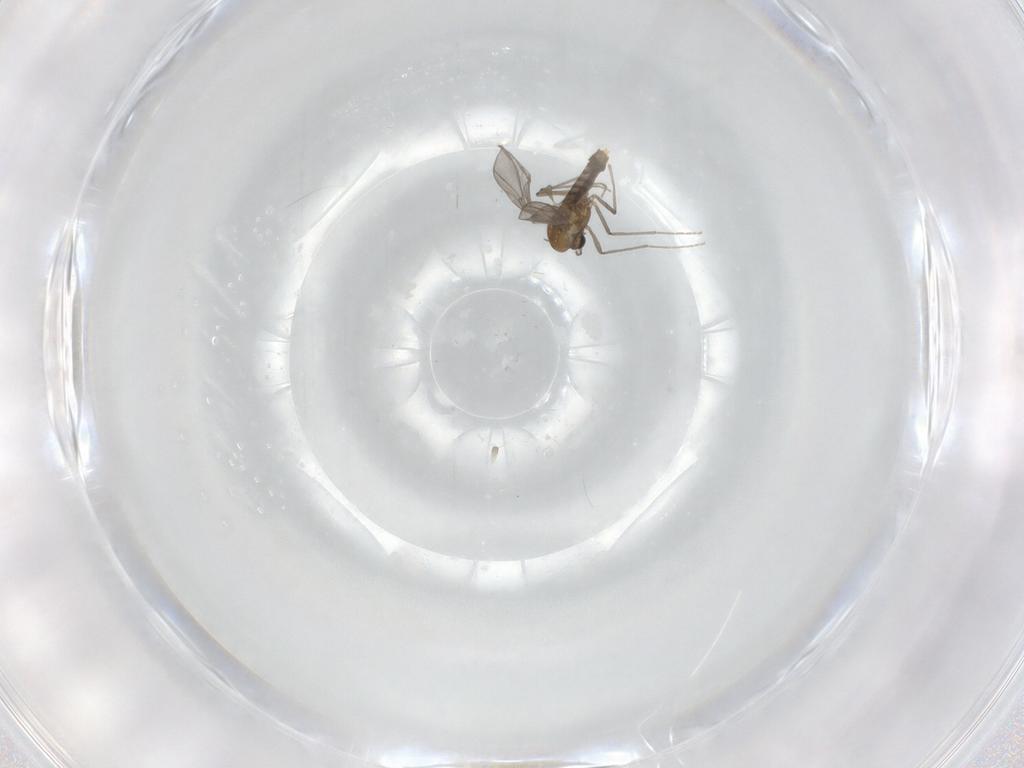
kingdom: Animalia
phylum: Arthropoda
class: Insecta
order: Diptera
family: Chironomidae
